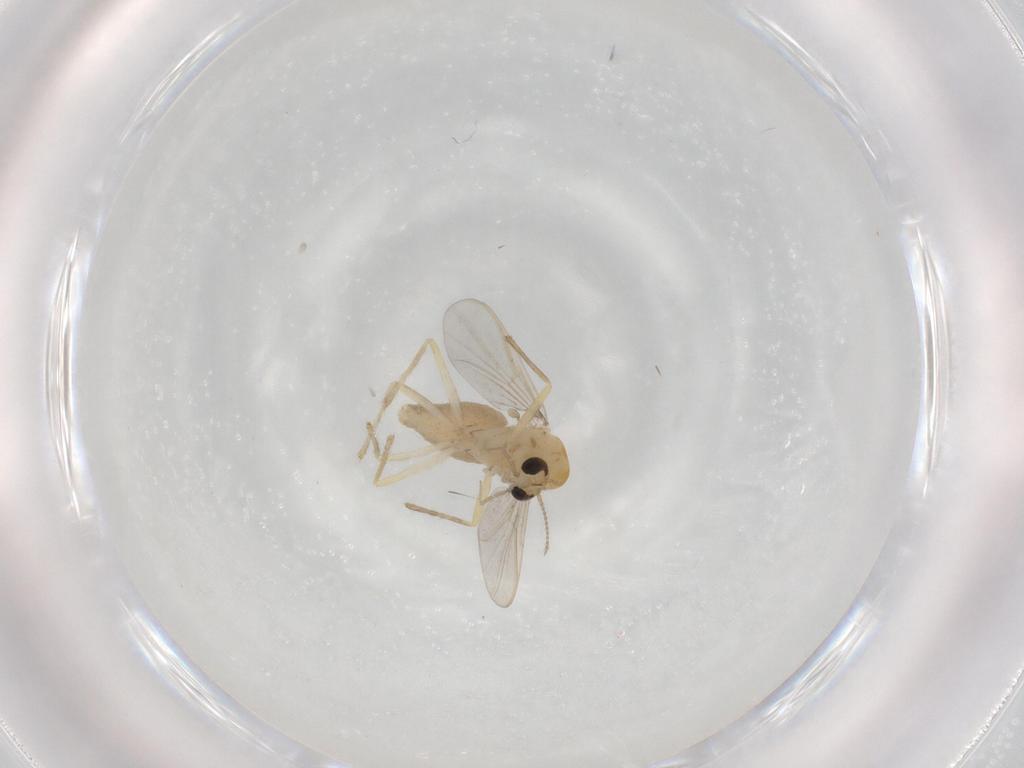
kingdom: Animalia
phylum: Arthropoda
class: Insecta
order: Diptera
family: Chironomidae
